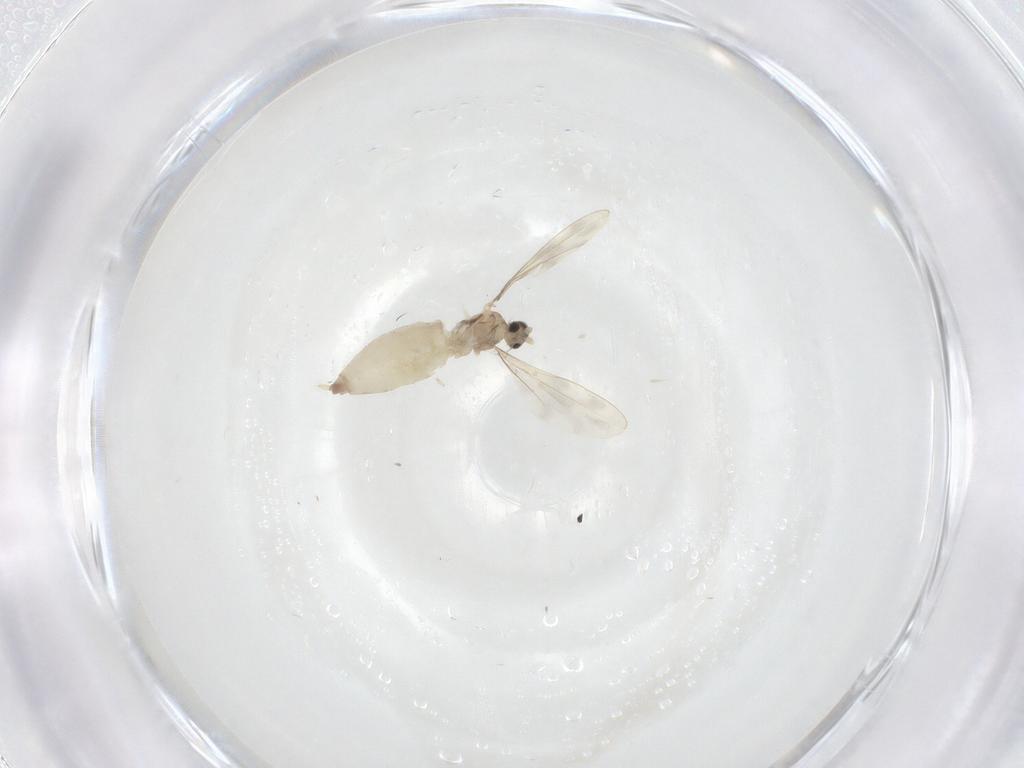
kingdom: Animalia
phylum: Arthropoda
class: Insecta
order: Diptera
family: Cecidomyiidae
